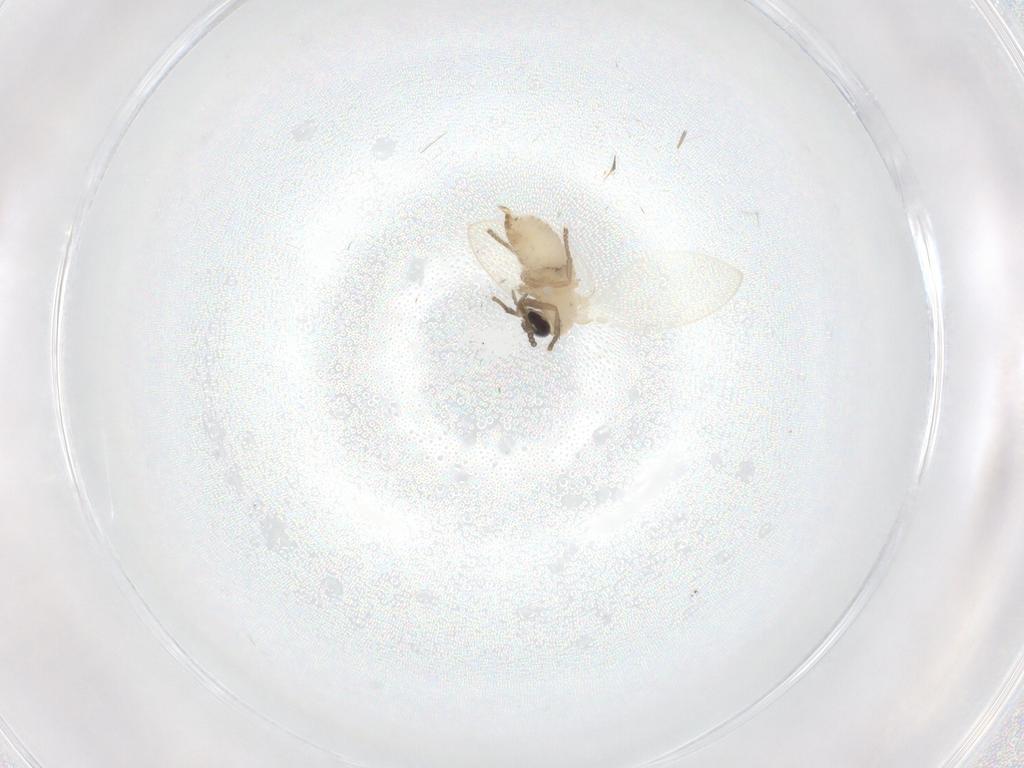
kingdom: Animalia
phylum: Arthropoda
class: Insecta
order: Diptera
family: Psychodidae
